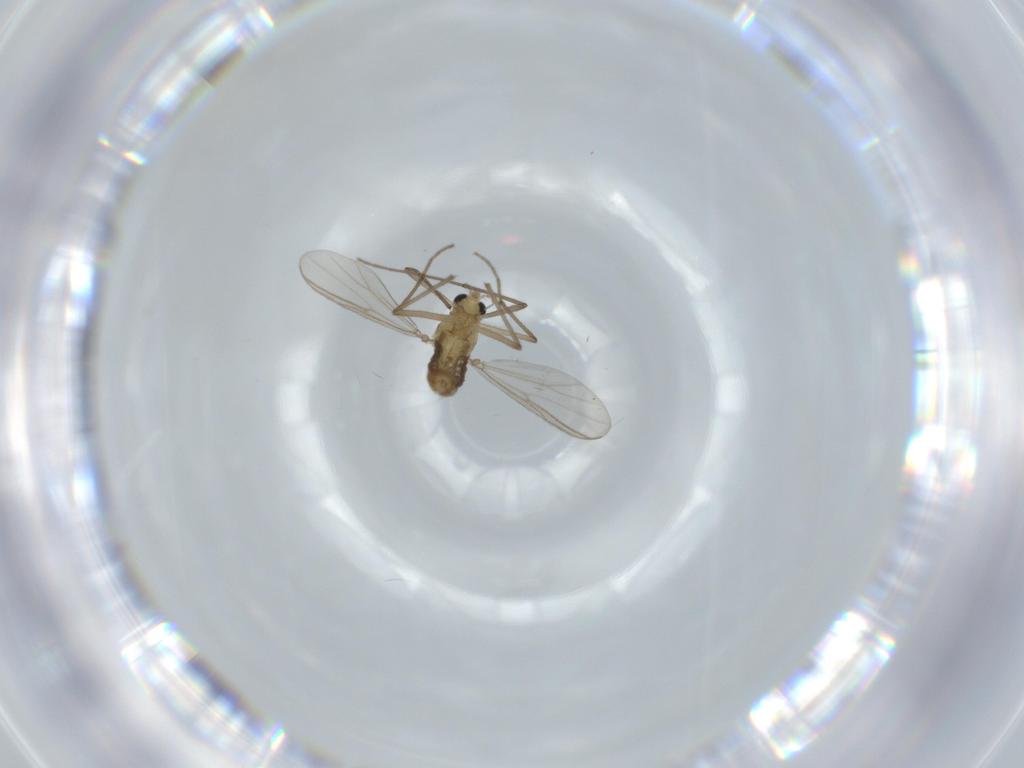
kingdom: Animalia
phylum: Arthropoda
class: Insecta
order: Diptera
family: Chironomidae
